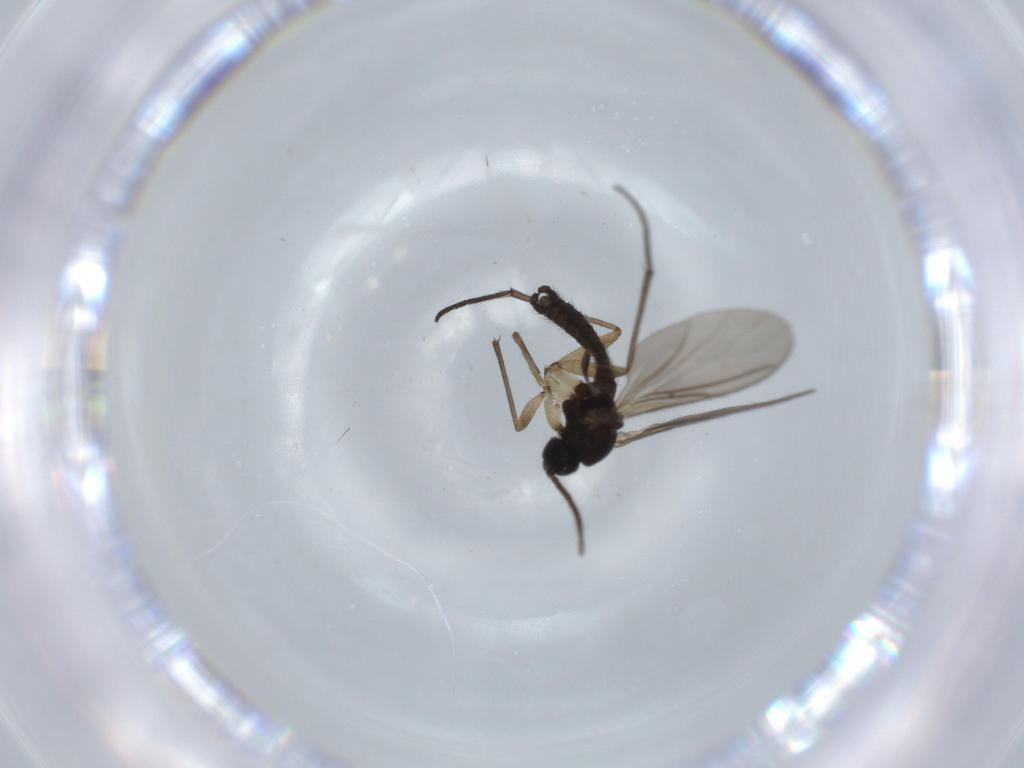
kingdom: Animalia
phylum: Arthropoda
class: Insecta
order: Diptera
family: Sciaridae
